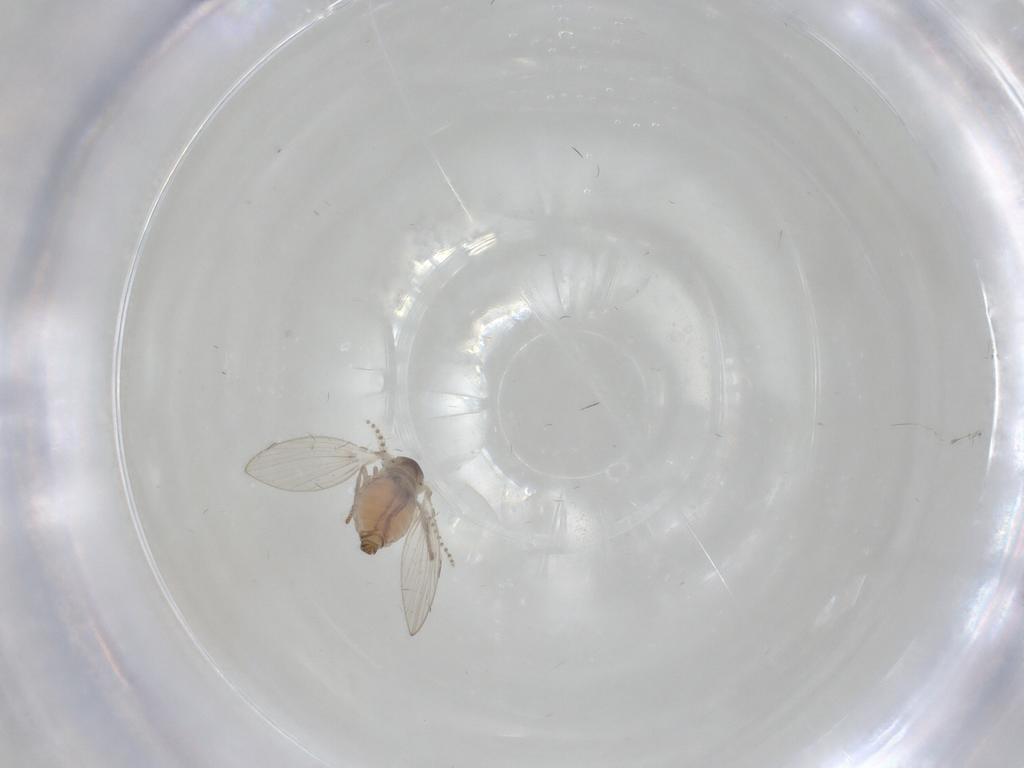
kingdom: Animalia
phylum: Arthropoda
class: Insecta
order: Diptera
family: Psychodidae
